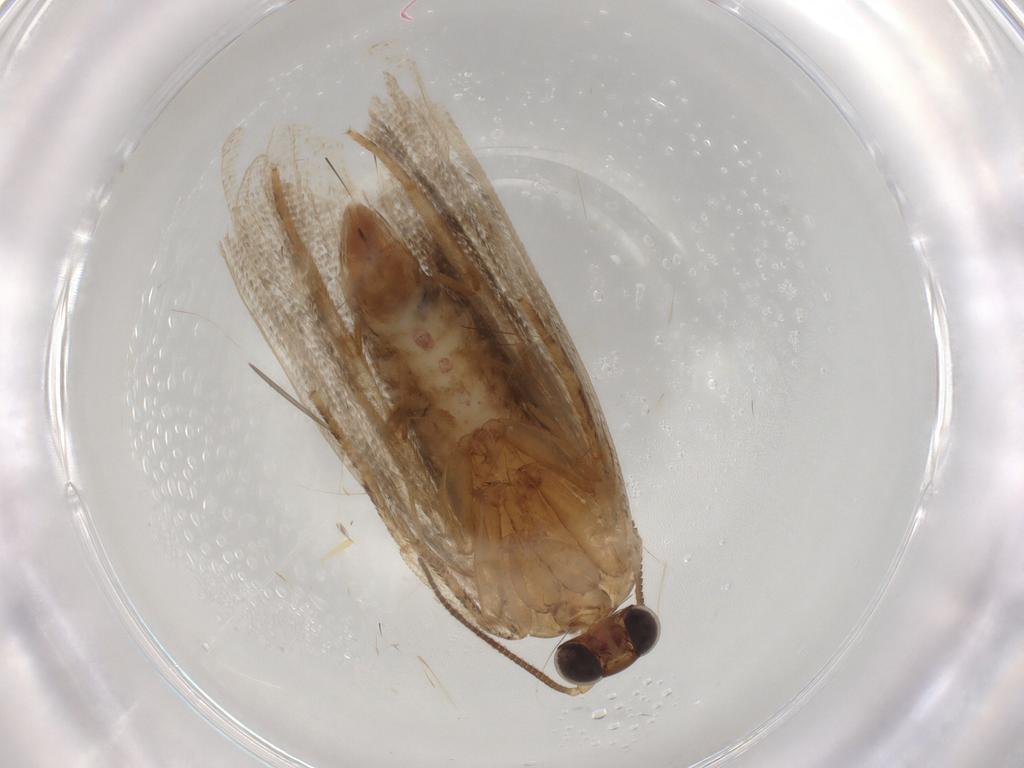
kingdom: Animalia
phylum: Arthropoda
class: Insecta
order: Lepidoptera
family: Tortricidae
